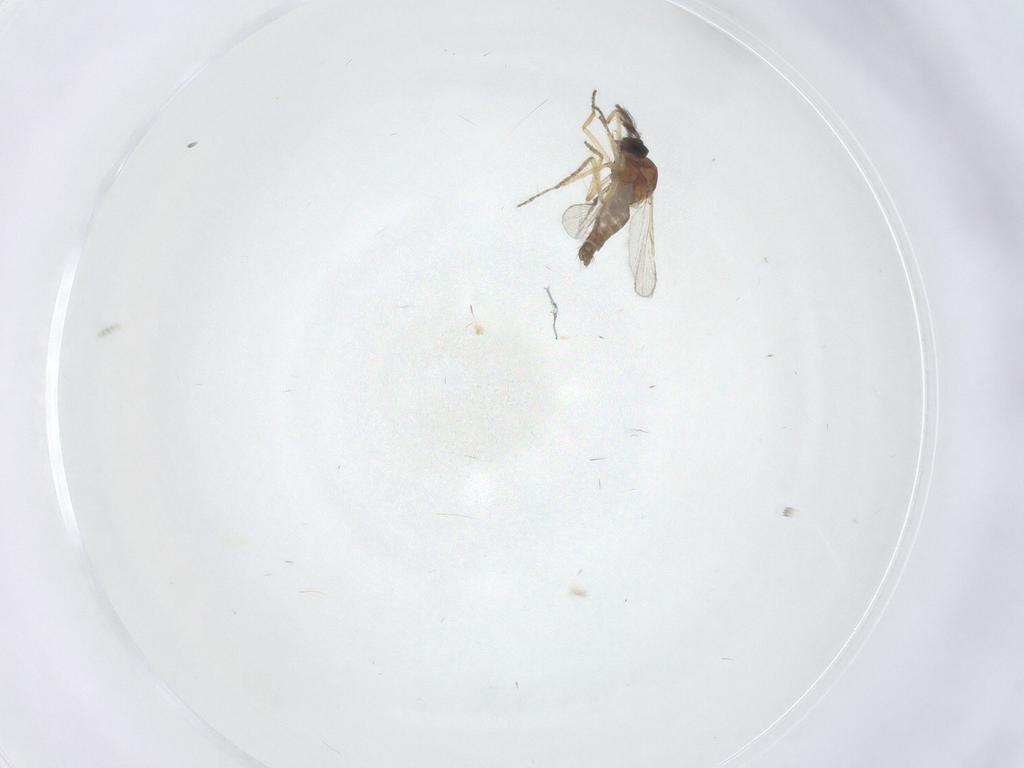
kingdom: Animalia
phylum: Arthropoda
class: Insecta
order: Diptera
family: Ceratopogonidae
